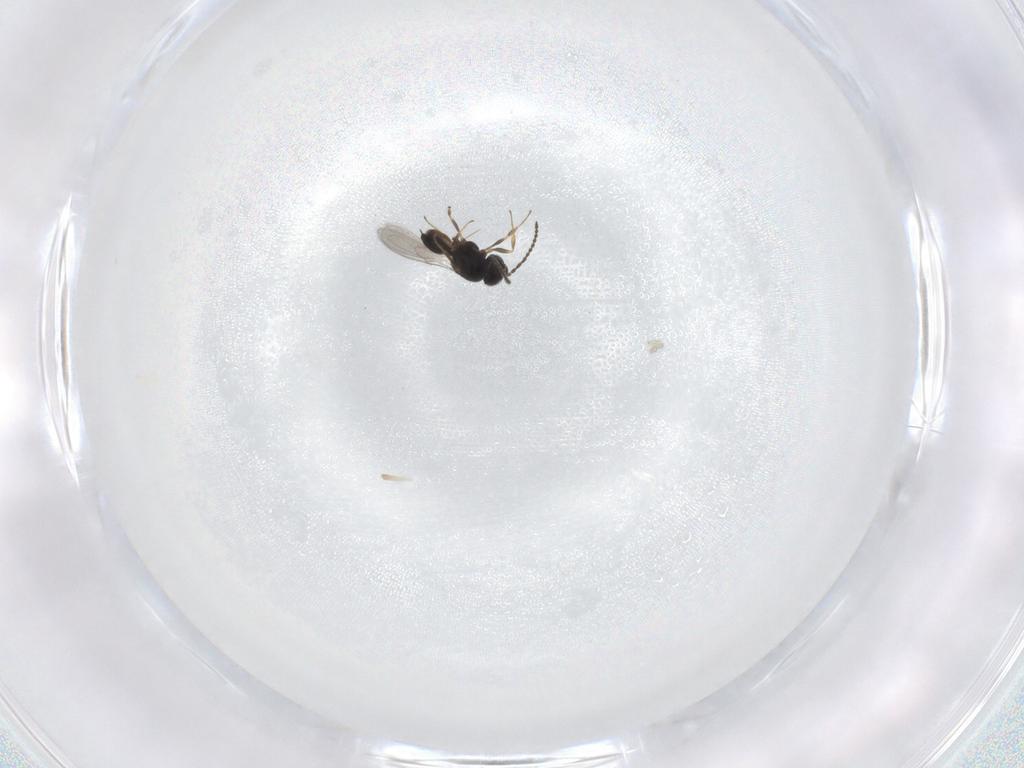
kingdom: Animalia
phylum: Arthropoda
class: Insecta
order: Hymenoptera
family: Scelionidae
